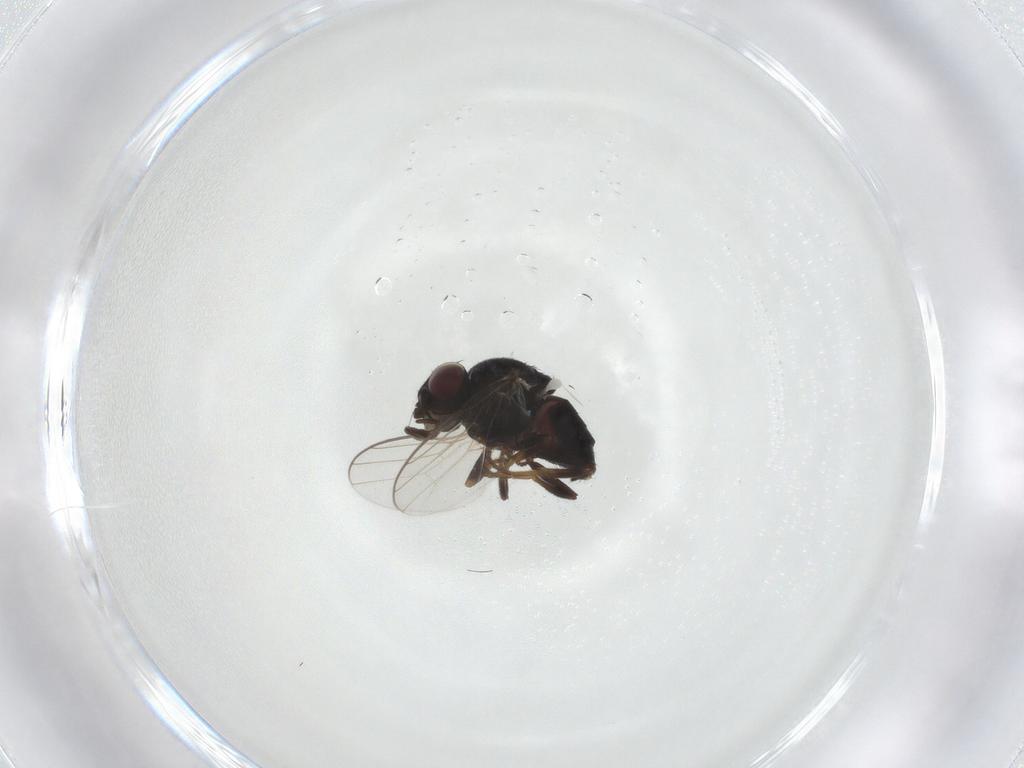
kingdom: Animalia
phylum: Arthropoda
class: Insecta
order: Diptera
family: Chloropidae
